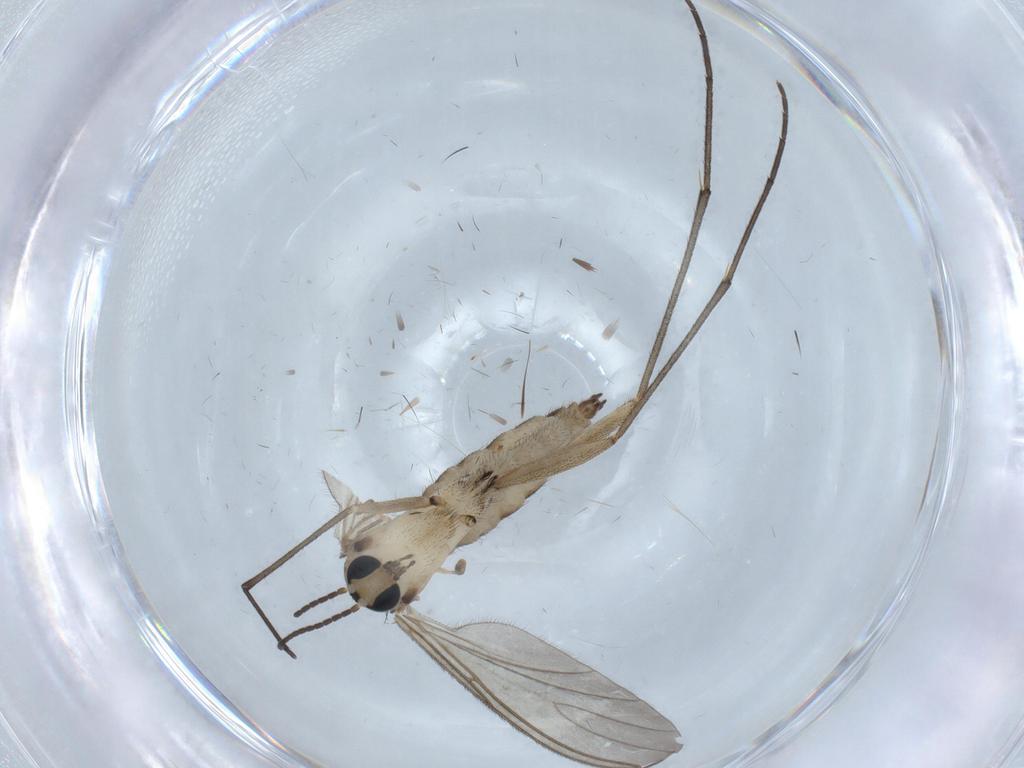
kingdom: Animalia
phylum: Arthropoda
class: Insecta
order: Diptera
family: Sciaridae
